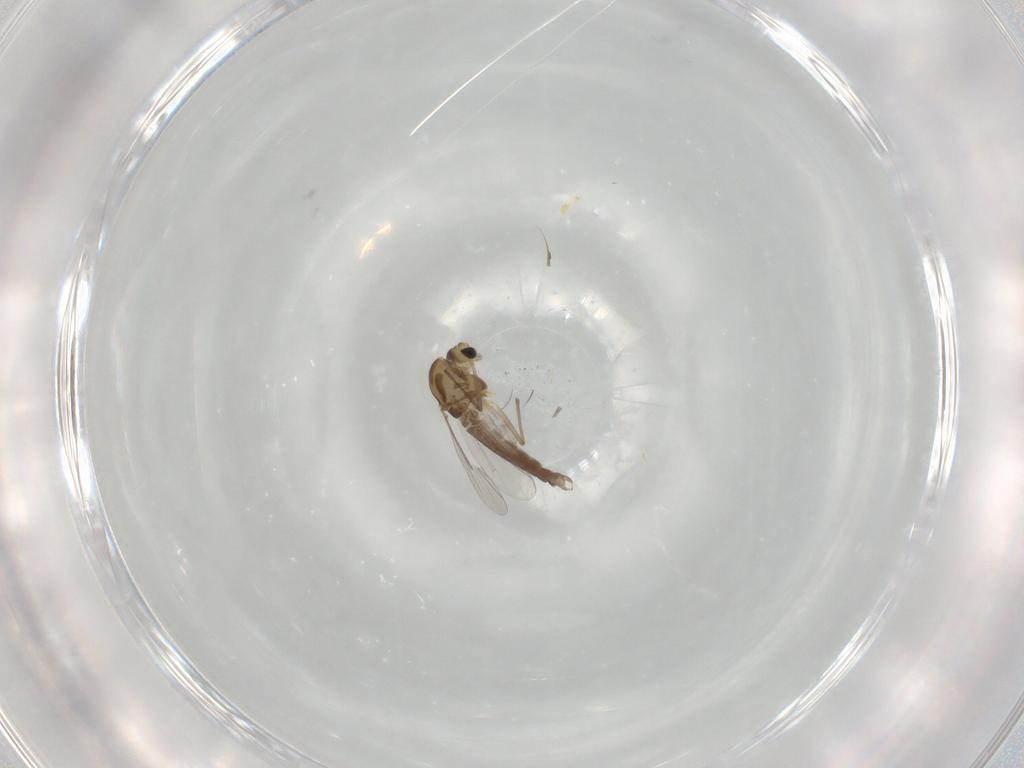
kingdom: Animalia
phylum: Arthropoda
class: Insecta
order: Diptera
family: Chironomidae
